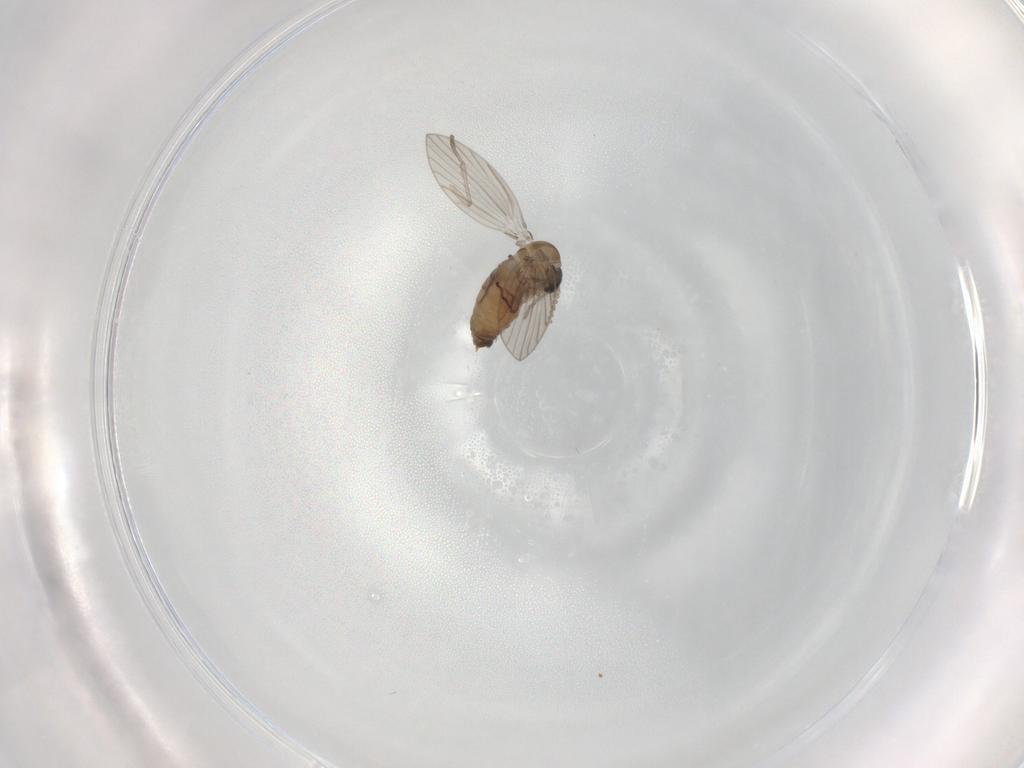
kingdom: Animalia
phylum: Arthropoda
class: Insecta
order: Diptera
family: Psychodidae
